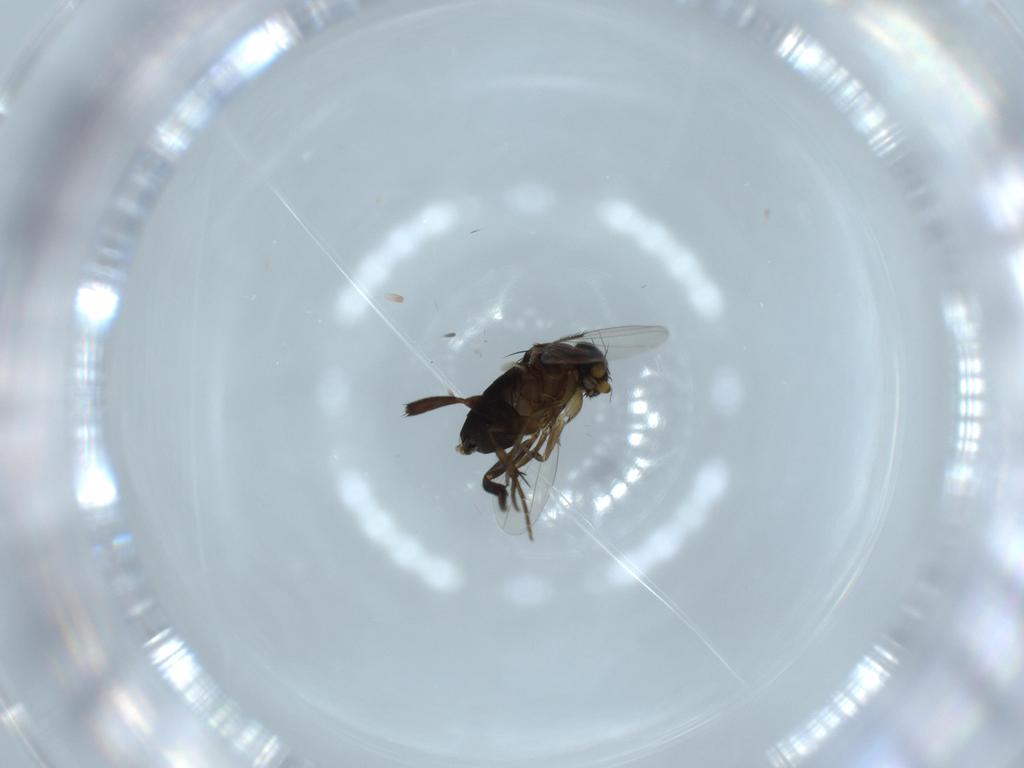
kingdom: Animalia
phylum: Arthropoda
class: Insecta
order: Diptera
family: Phoridae
